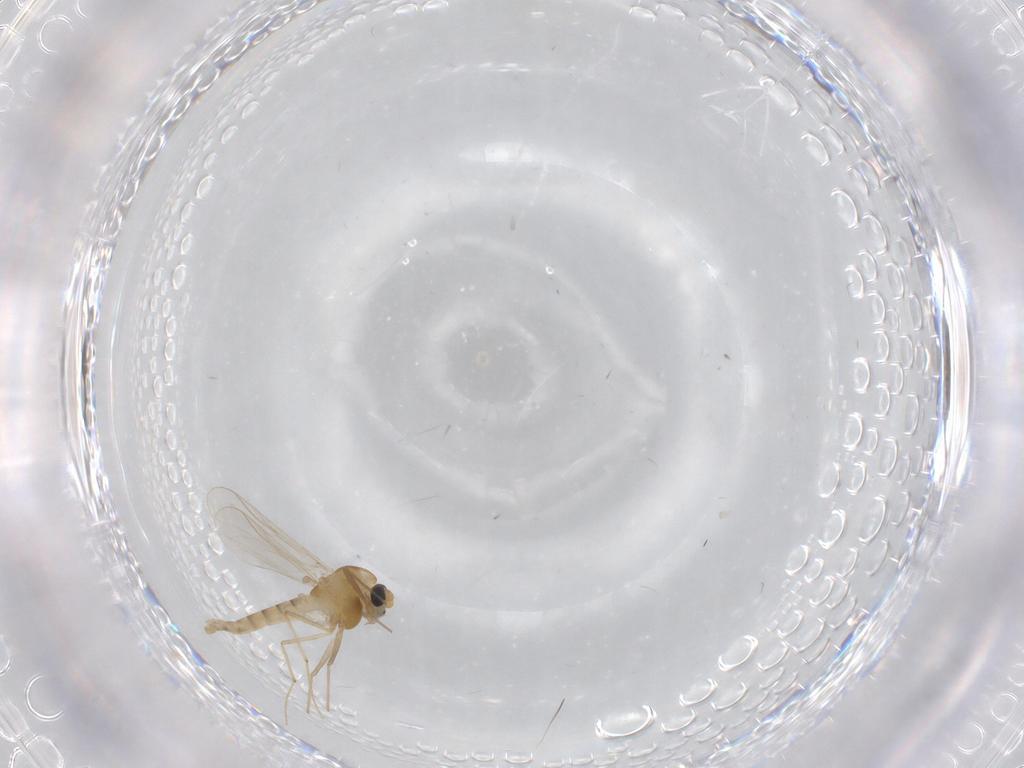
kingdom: Animalia
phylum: Arthropoda
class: Insecta
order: Diptera
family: Chironomidae
